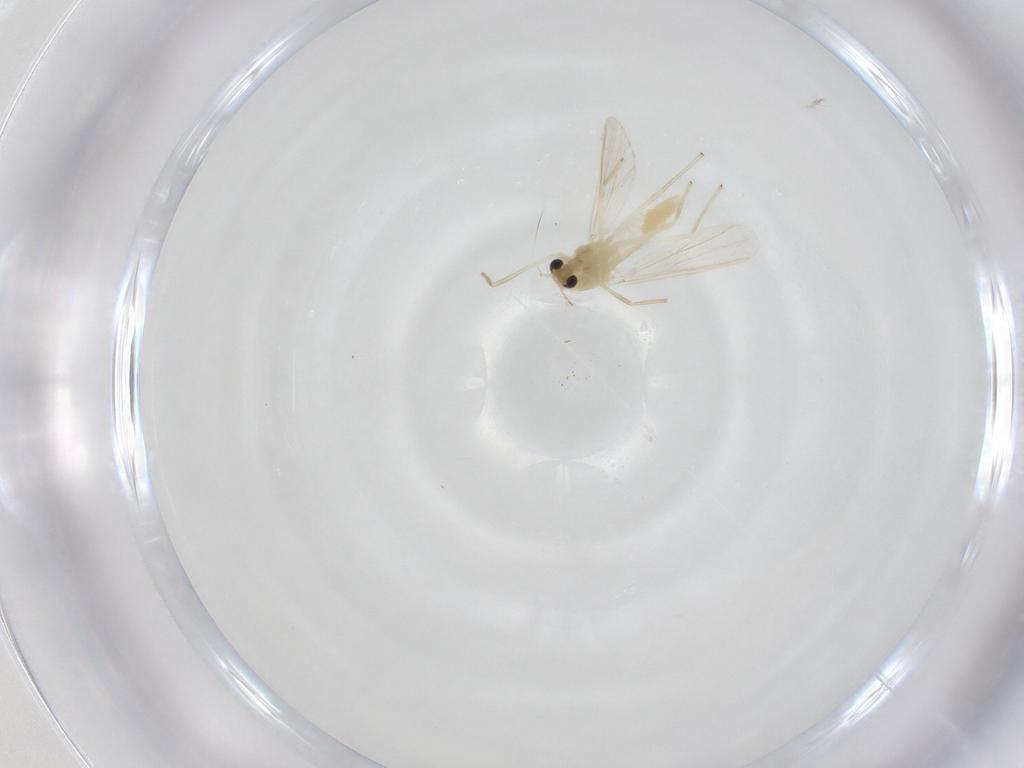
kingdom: Animalia
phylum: Arthropoda
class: Insecta
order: Diptera
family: Chironomidae
